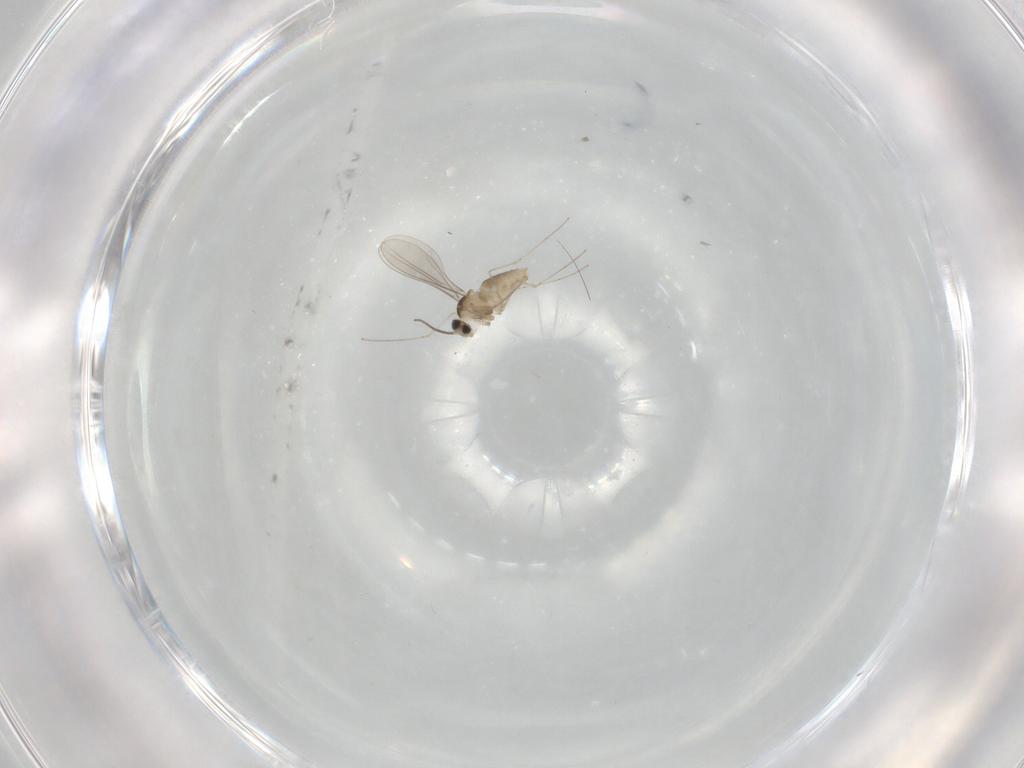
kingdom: Animalia
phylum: Arthropoda
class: Insecta
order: Diptera
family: Cecidomyiidae
